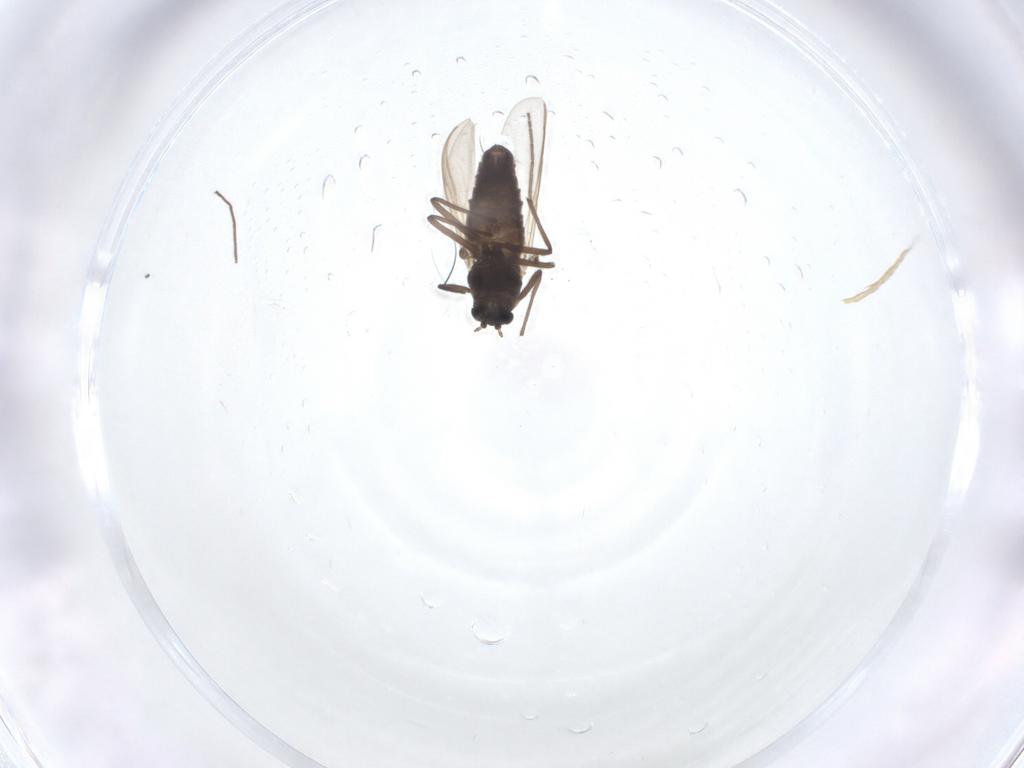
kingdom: Animalia
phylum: Arthropoda
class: Insecta
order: Diptera
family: Chironomidae
